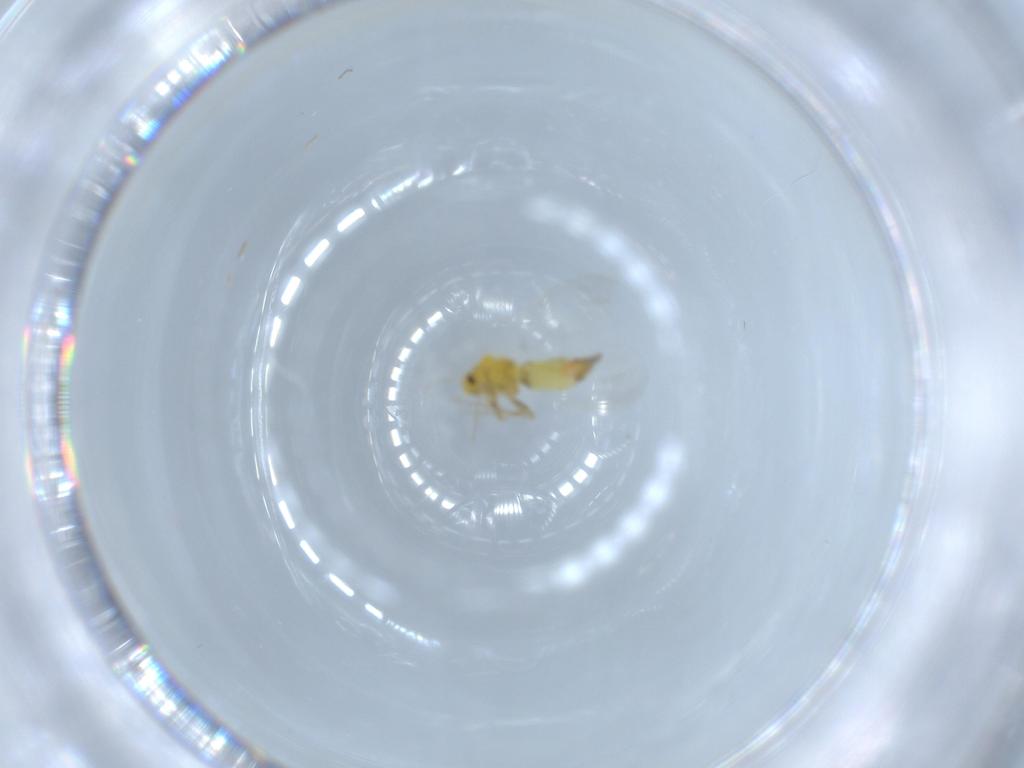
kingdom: Animalia
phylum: Arthropoda
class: Insecta
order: Hemiptera
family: Aleyrodidae
